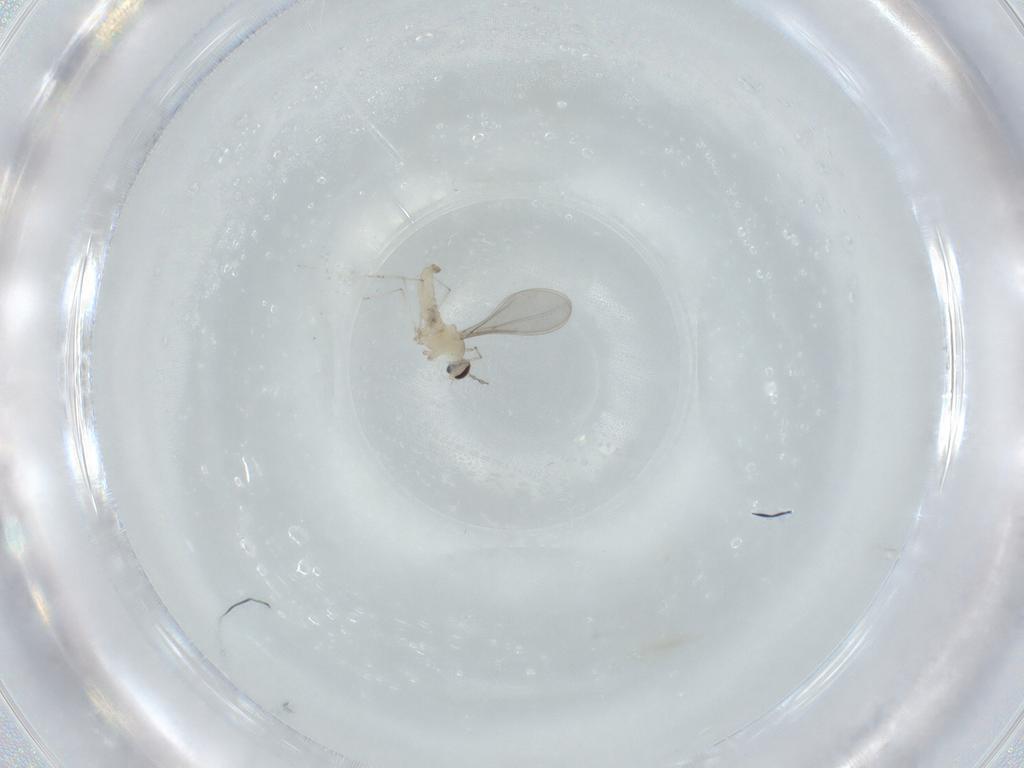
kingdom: Animalia
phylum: Arthropoda
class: Insecta
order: Diptera
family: Cecidomyiidae
